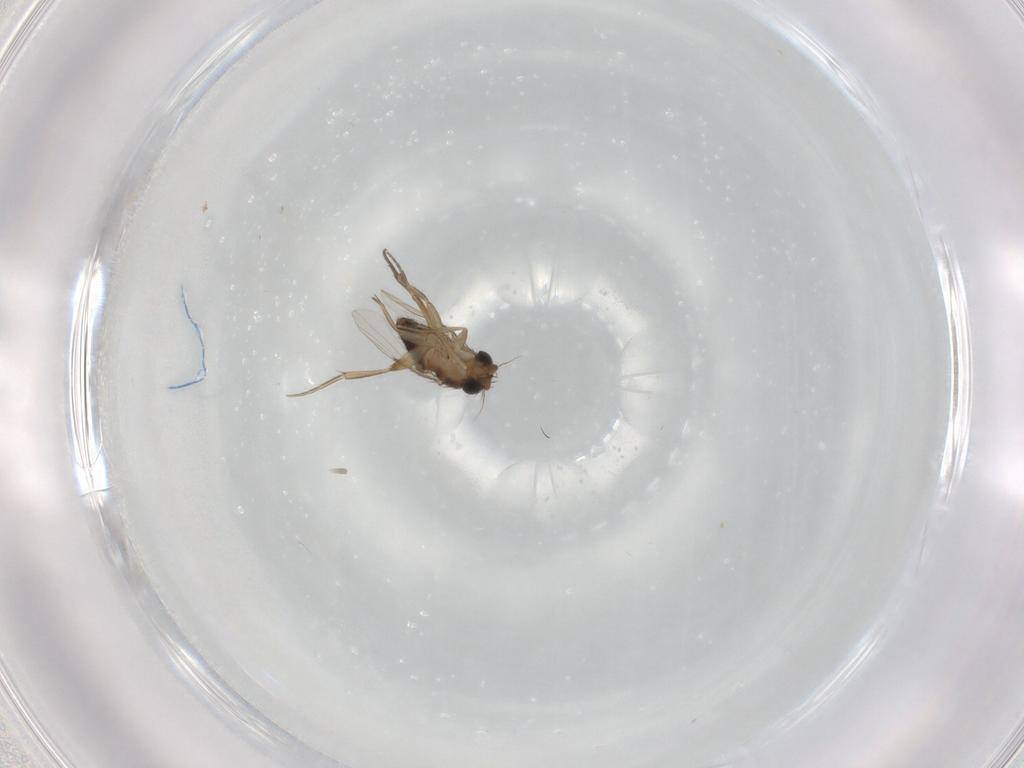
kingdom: Animalia
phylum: Arthropoda
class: Insecta
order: Diptera
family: Phoridae
